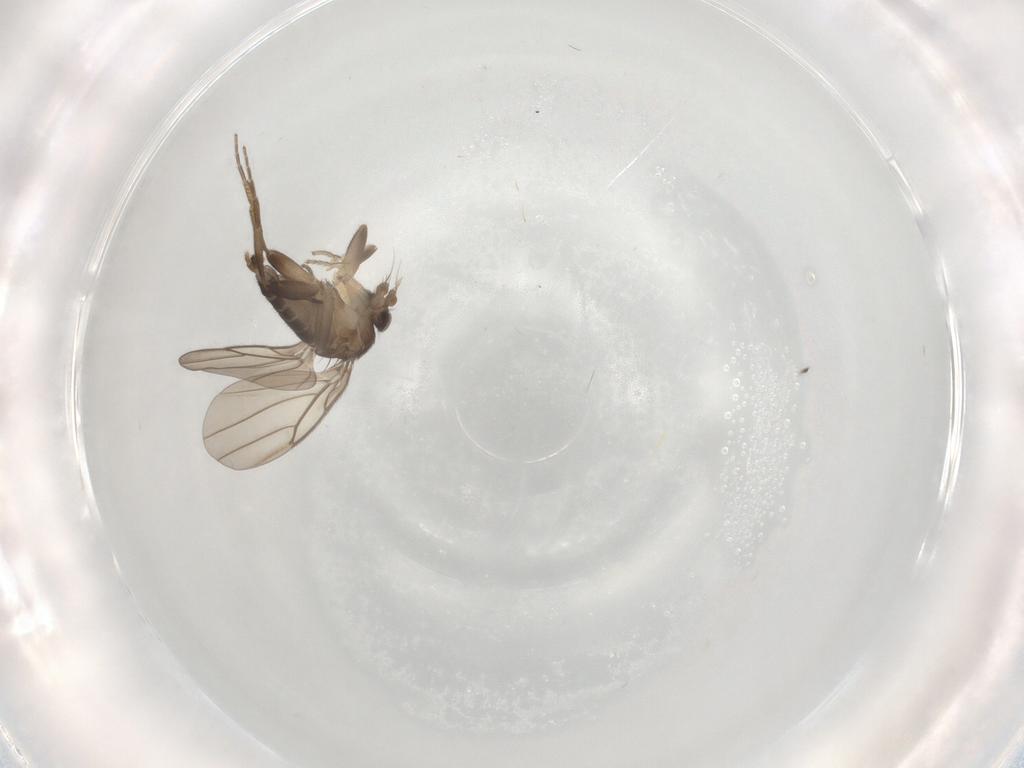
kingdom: Animalia
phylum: Arthropoda
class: Insecta
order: Diptera
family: Phoridae
